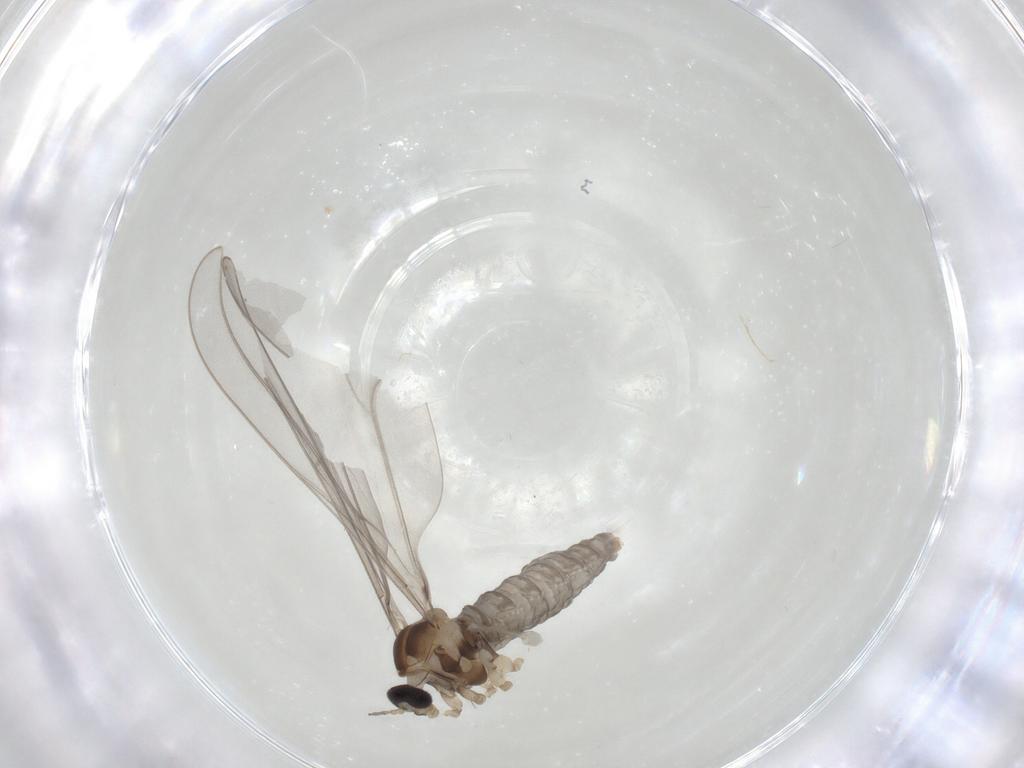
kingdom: Animalia
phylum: Arthropoda
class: Insecta
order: Diptera
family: Cecidomyiidae
